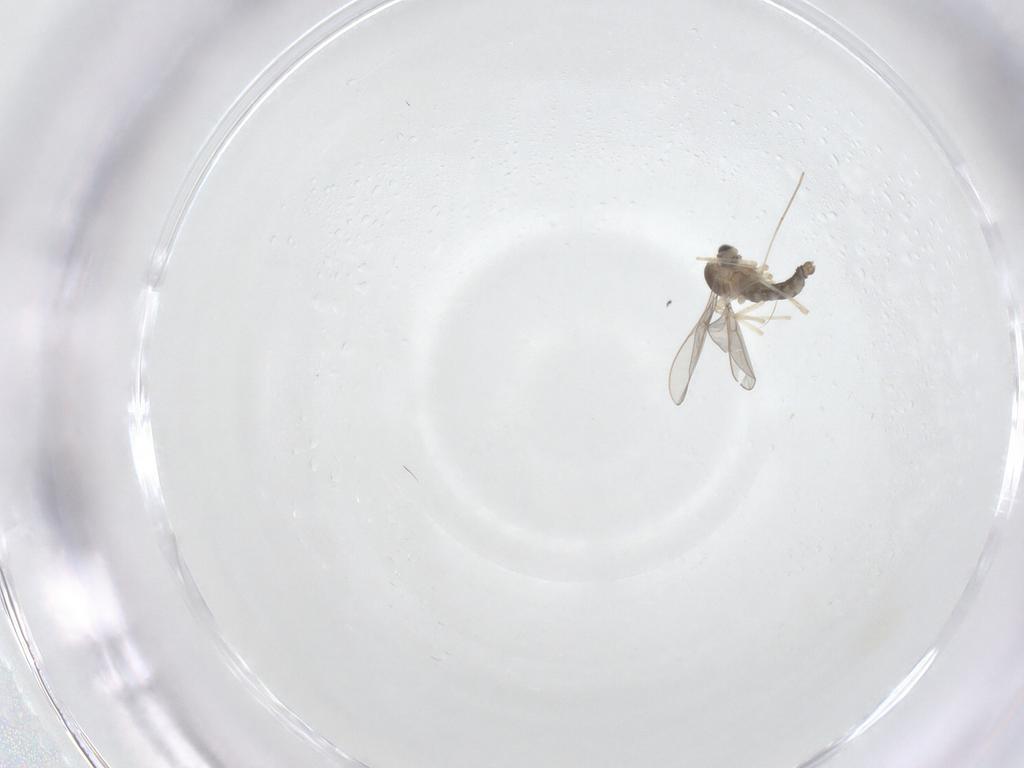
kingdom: Animalia
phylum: Arthropoda
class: Insecta
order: Diptera
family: Cecidomyiidae
